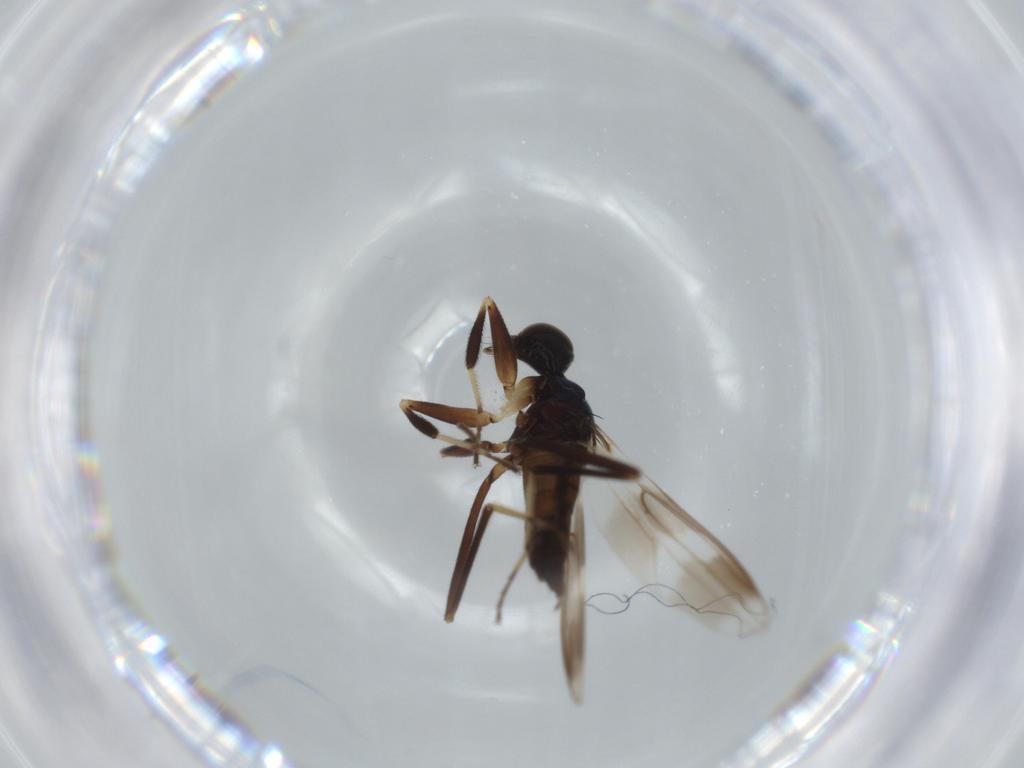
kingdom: Animalia
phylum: Arthropoda
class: Insecta
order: Diptera
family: Hybotidae
